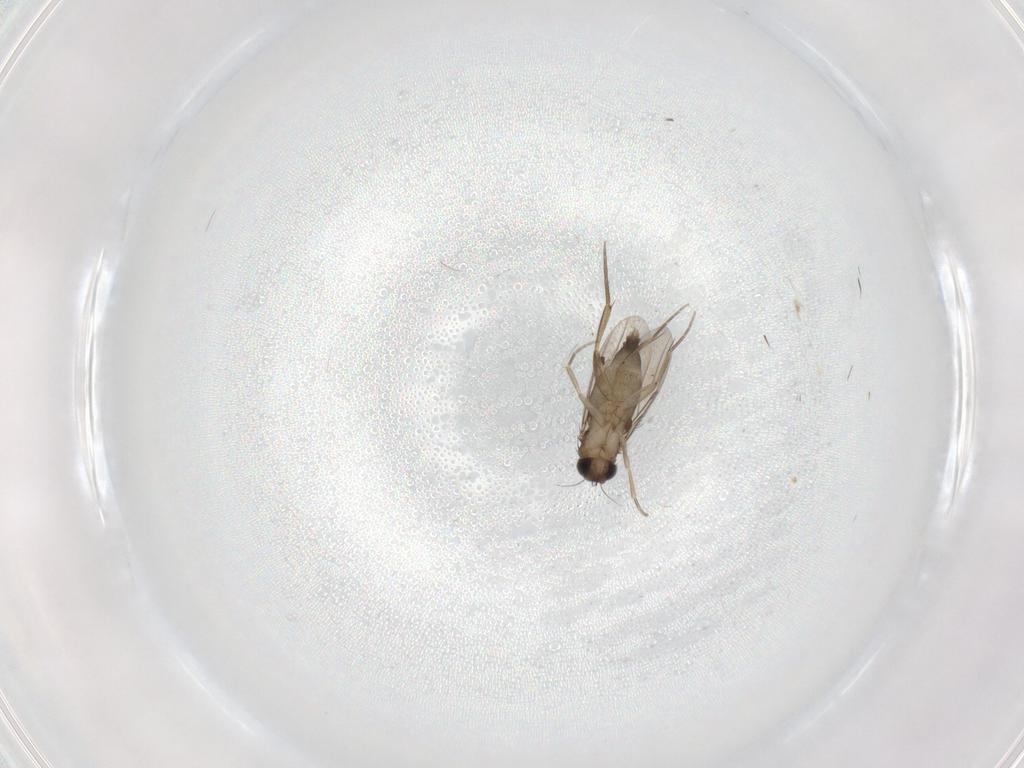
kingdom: Animalia
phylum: Arthropoda
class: Insecta
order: Diptera
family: Phoridae
